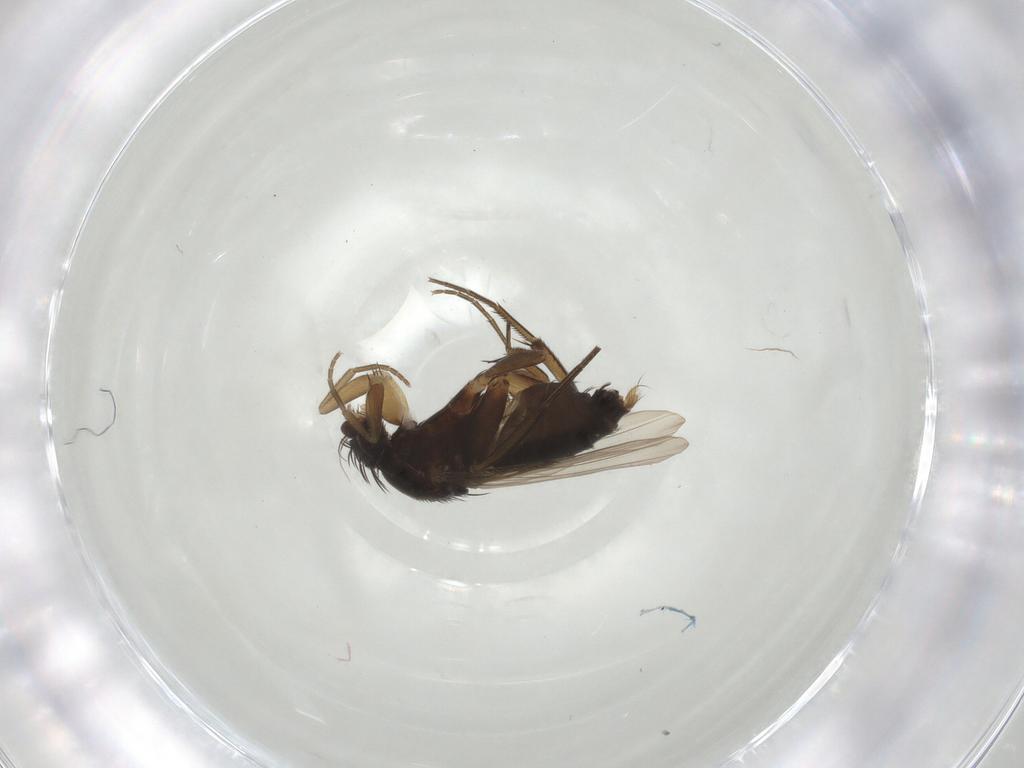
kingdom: Animalia
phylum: Arthropoda
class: Insecta
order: Diptera
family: Phoridae
